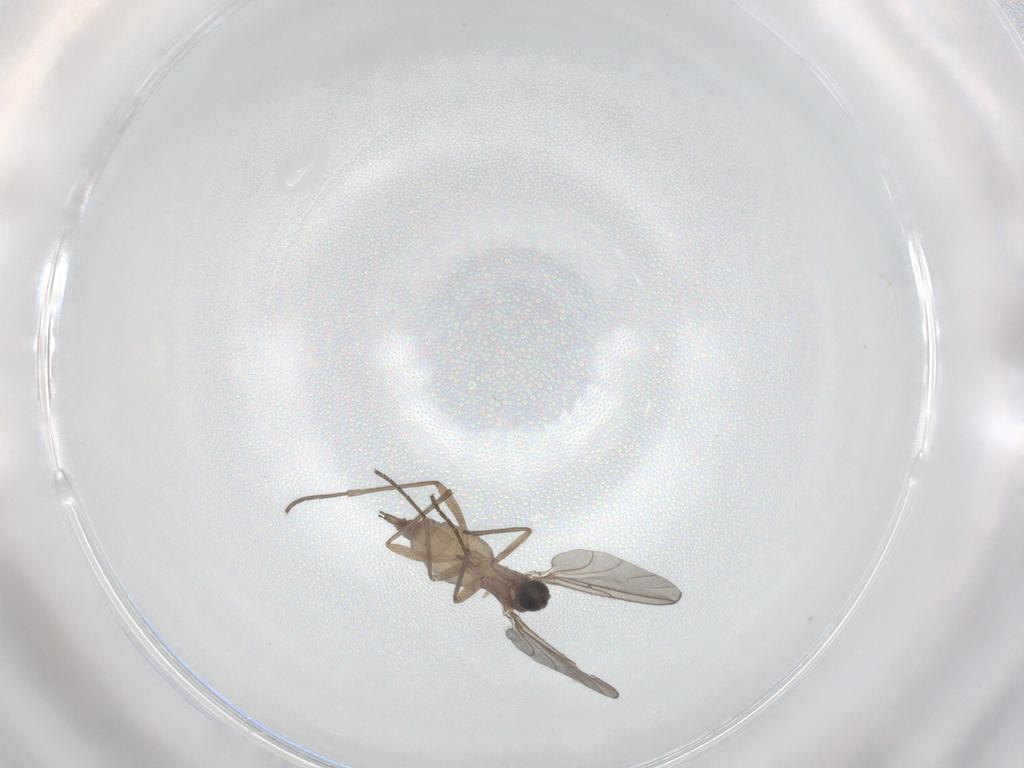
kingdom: Animalia
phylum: Arthropoda
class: Insecta
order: Diptera
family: Sciaridae
